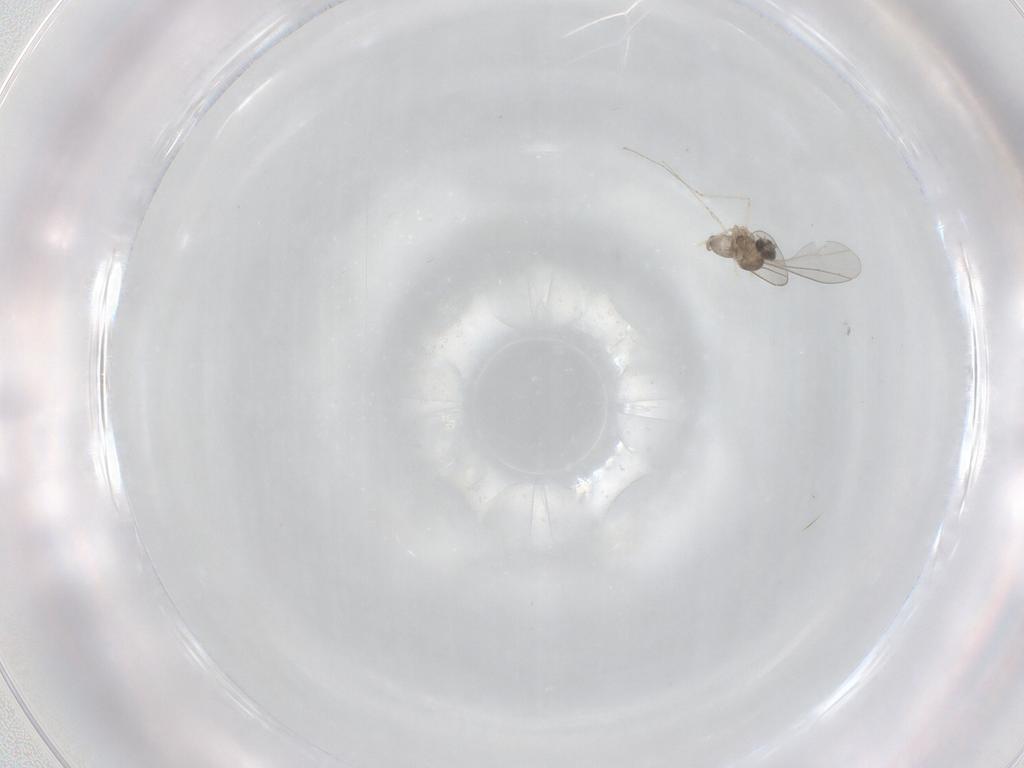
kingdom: Animalia
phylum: Arthropoda
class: Insecta
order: Diptera
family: Cecidomyiidae
